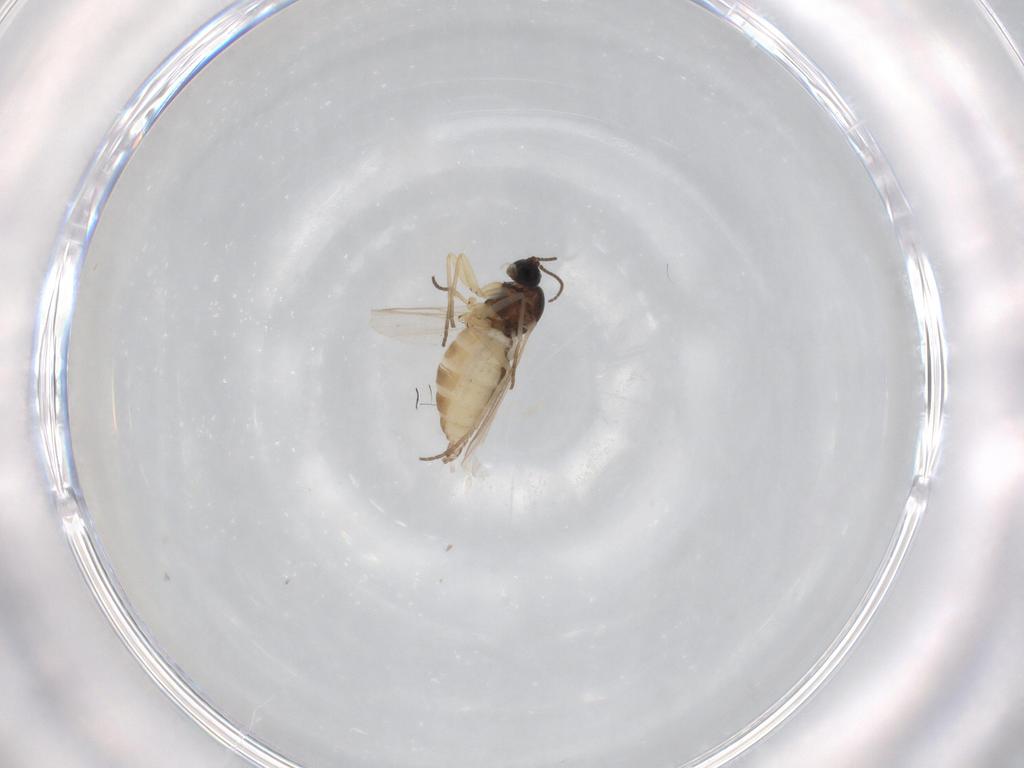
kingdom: Animalia
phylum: Arthropoda
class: Insecta
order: Diptera
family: Sciaridae
